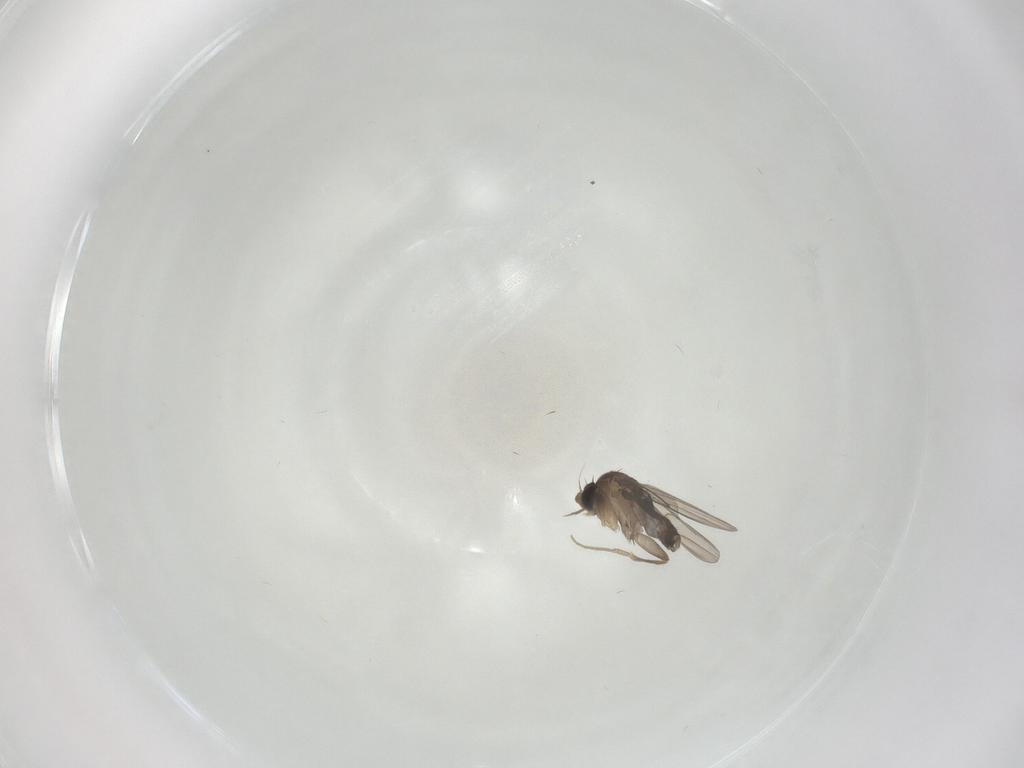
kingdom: Animalia
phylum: Arthropoda
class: Insecta
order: Diptera
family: Phoridae
